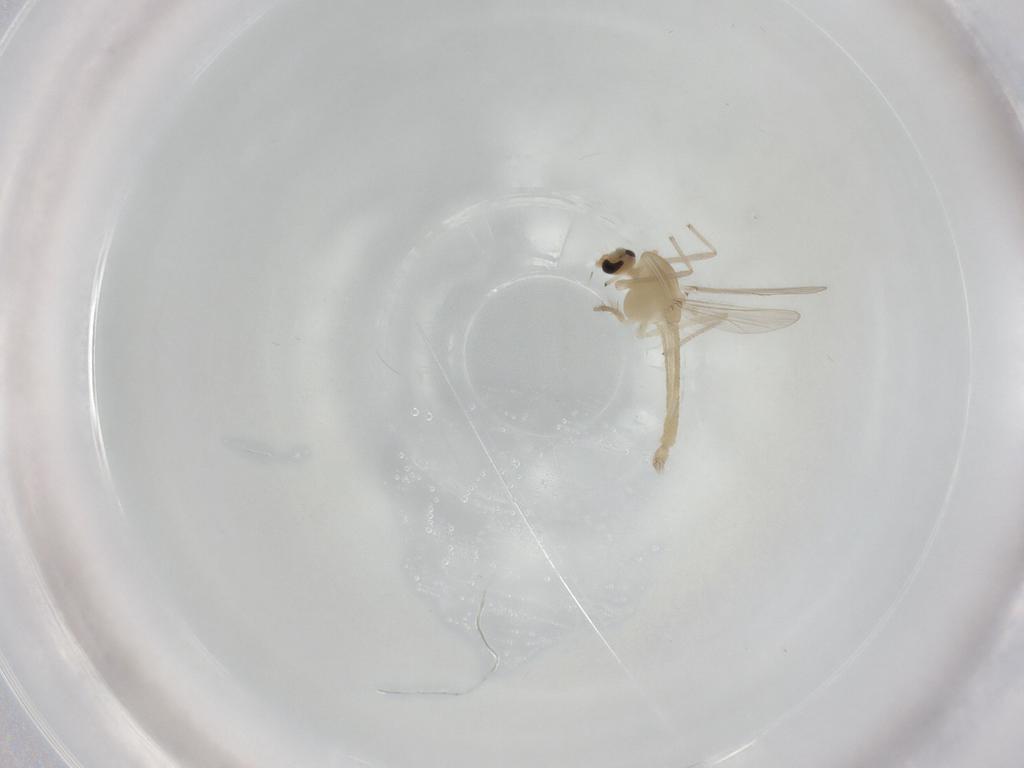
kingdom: Animalia
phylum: Arthropoda
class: Insecta
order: Diptera
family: Chironomidae
